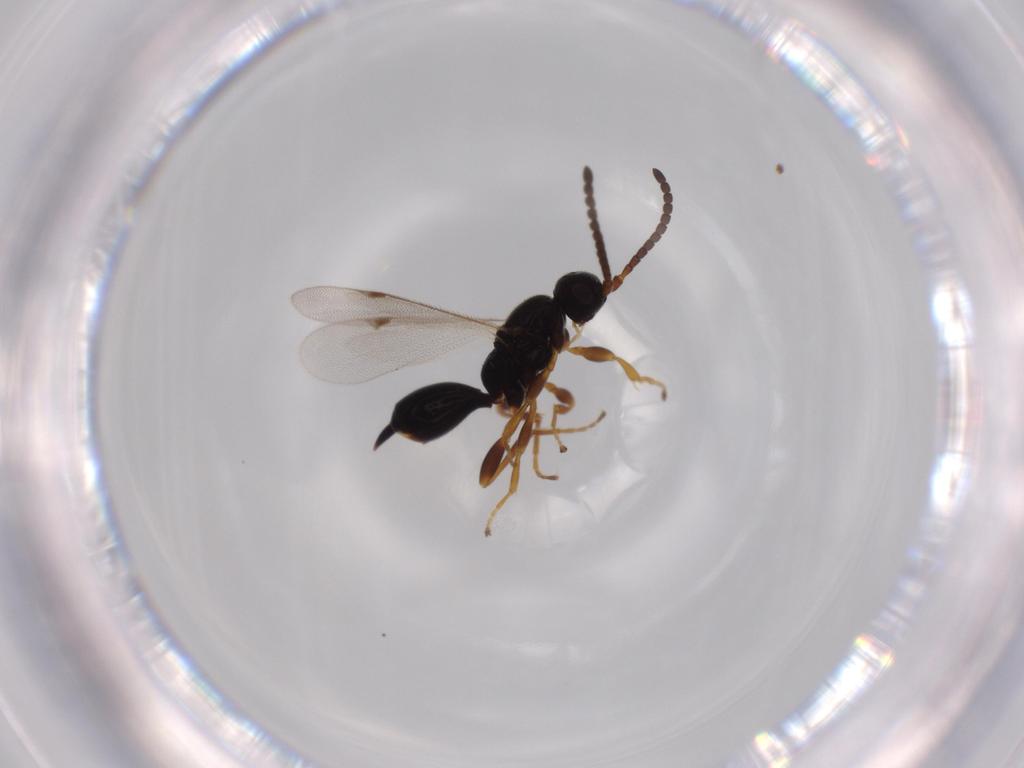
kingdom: Animalia
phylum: Arthropoda
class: Insecta
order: Hymenoptera
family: Proctotrupidae
